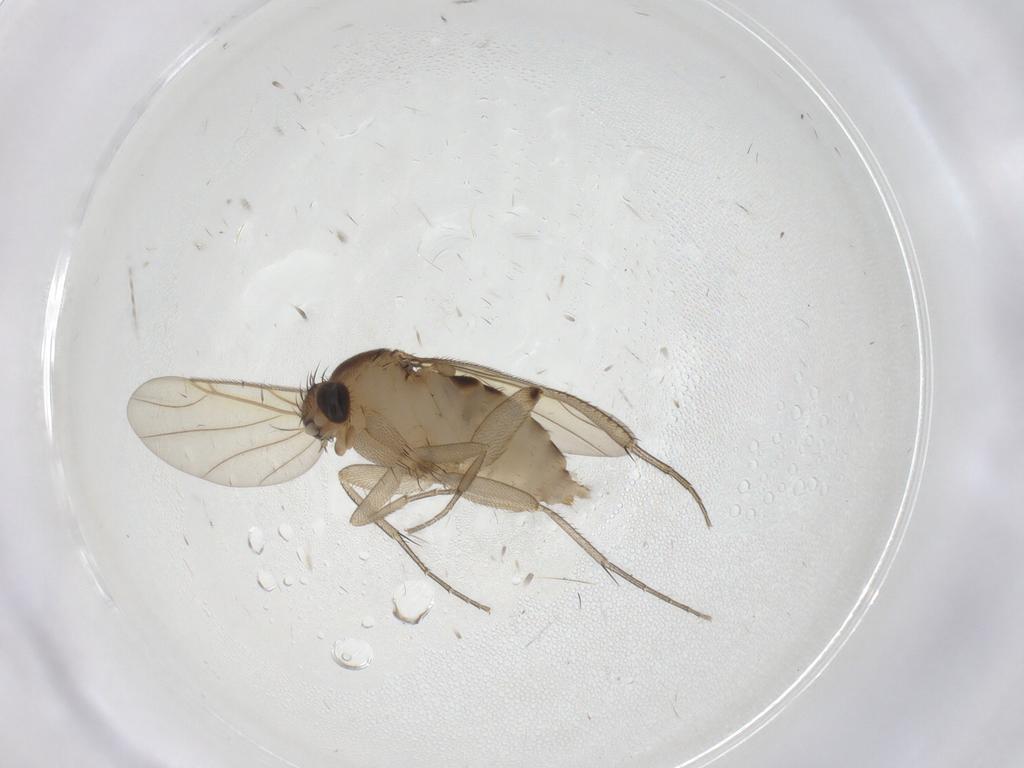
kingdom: Animalia
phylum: Arthropoda
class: Insecta
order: Diptera
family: Phoridae
